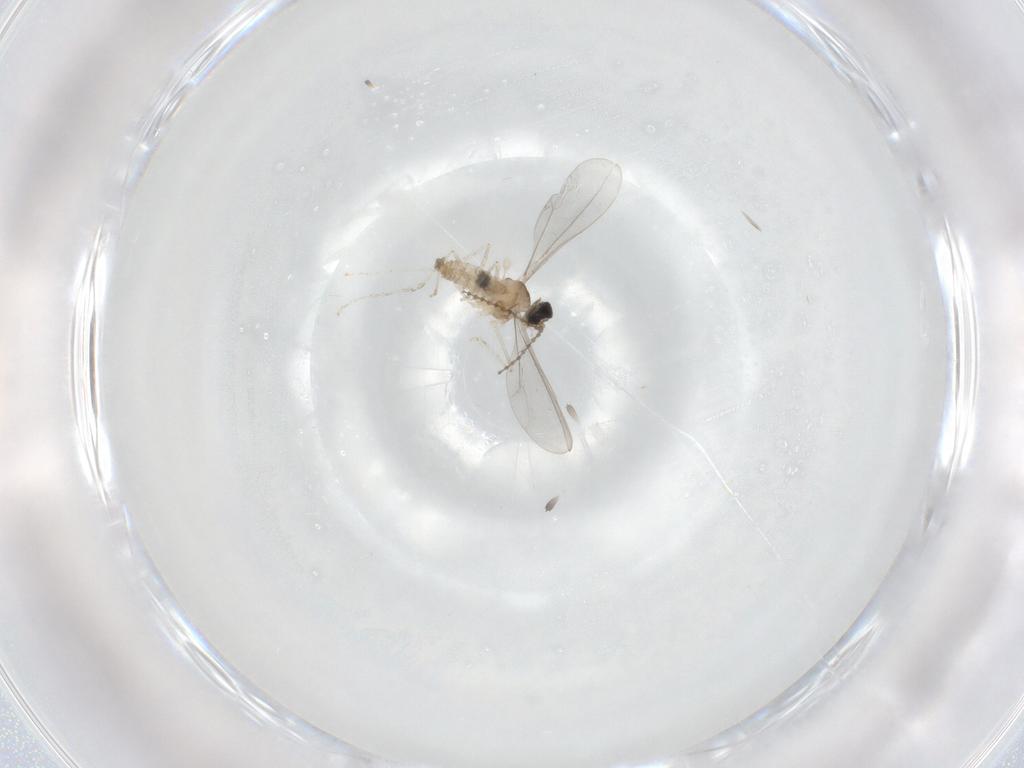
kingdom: Animalia
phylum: Arthropoda
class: Insecta
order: Diptera
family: Cecidomyiidae
